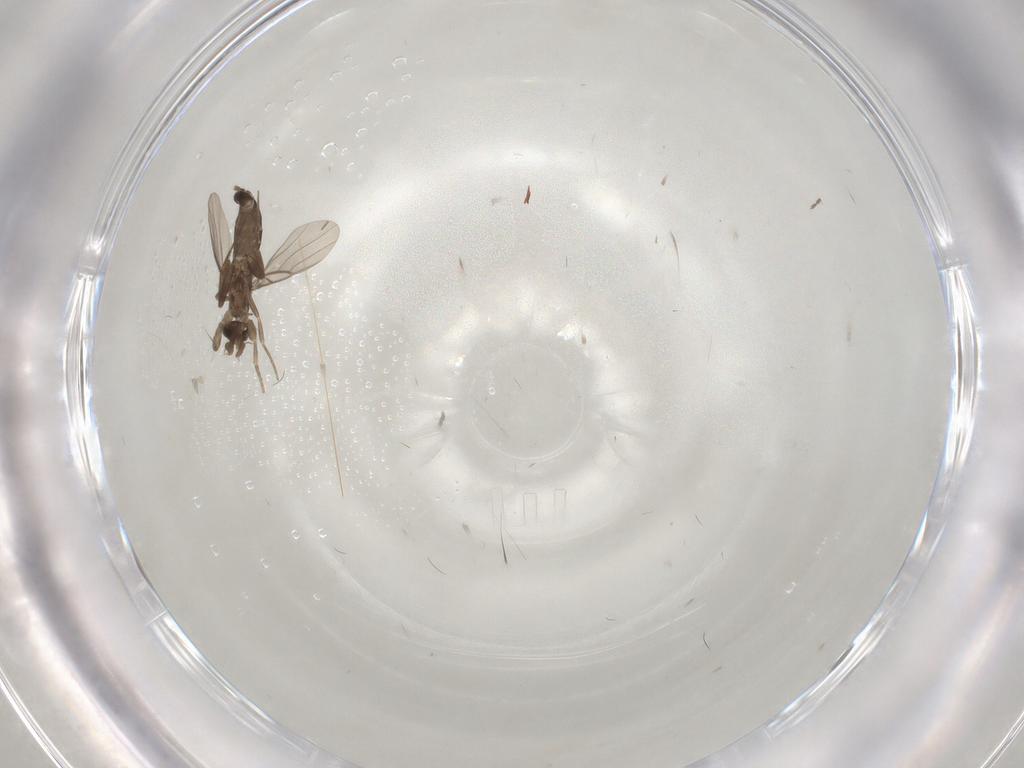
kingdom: Animalia
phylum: Arthropoda
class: Insecta
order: Diptera
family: Cecidomyiidae
